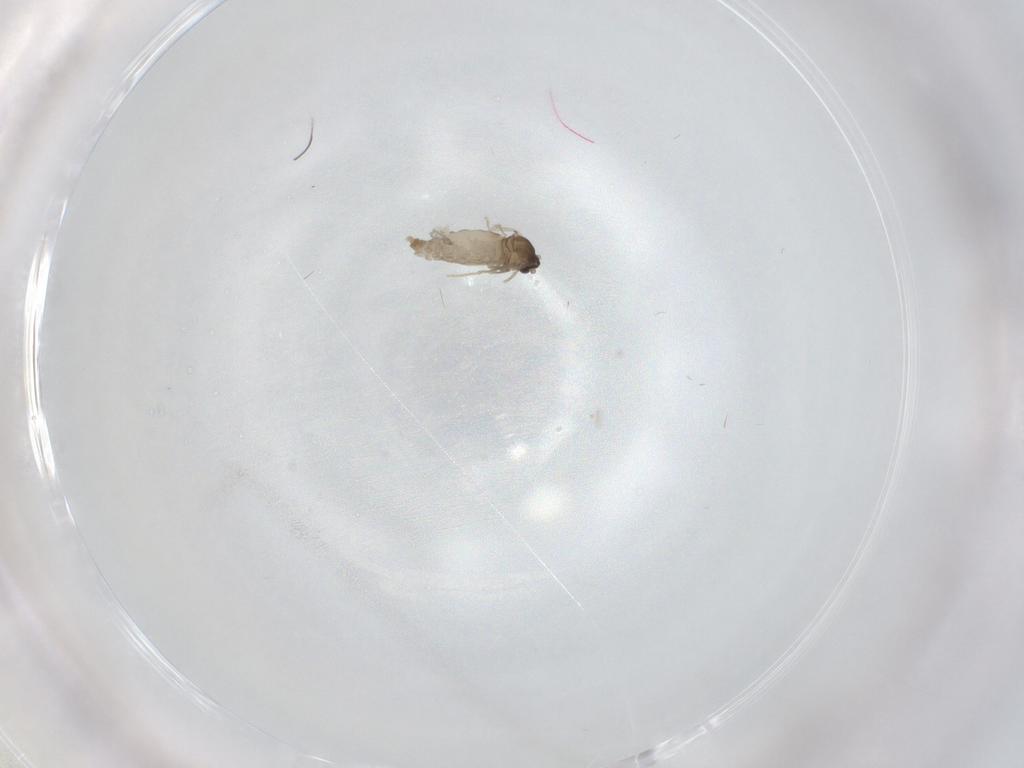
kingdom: Animalia
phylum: Arthropoda
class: Insecta
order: Diptera
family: Cecidomyiidae
